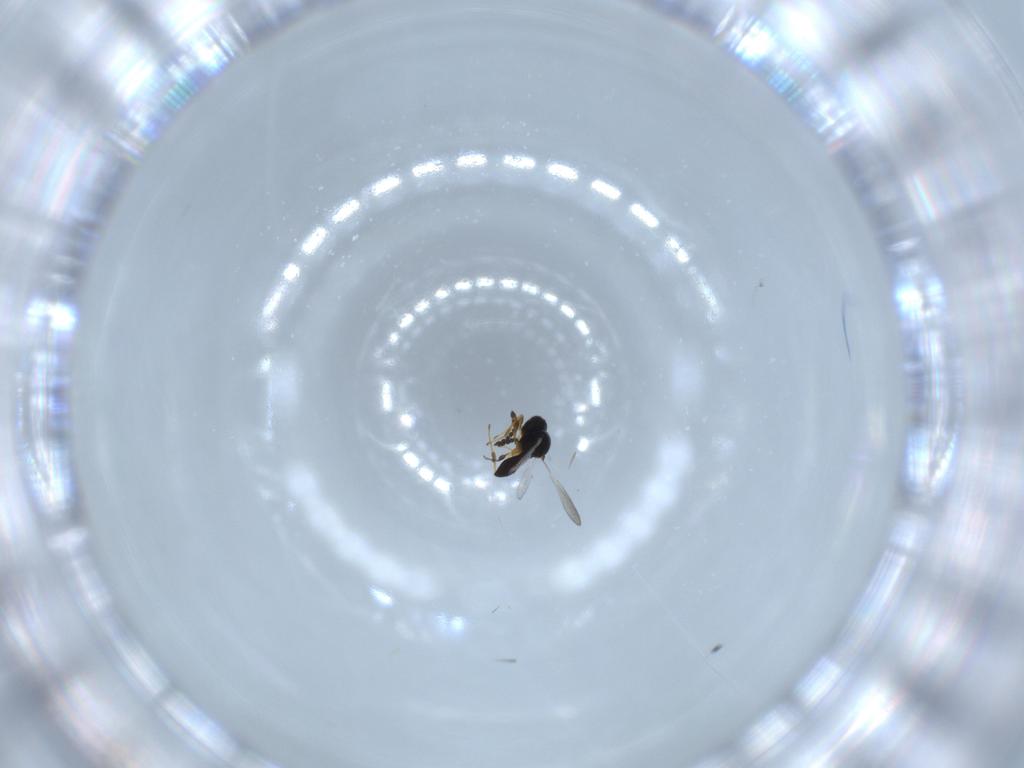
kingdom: Animalia
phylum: Arthropoda
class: Insecta
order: Hymenoptera
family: Platygastridae
